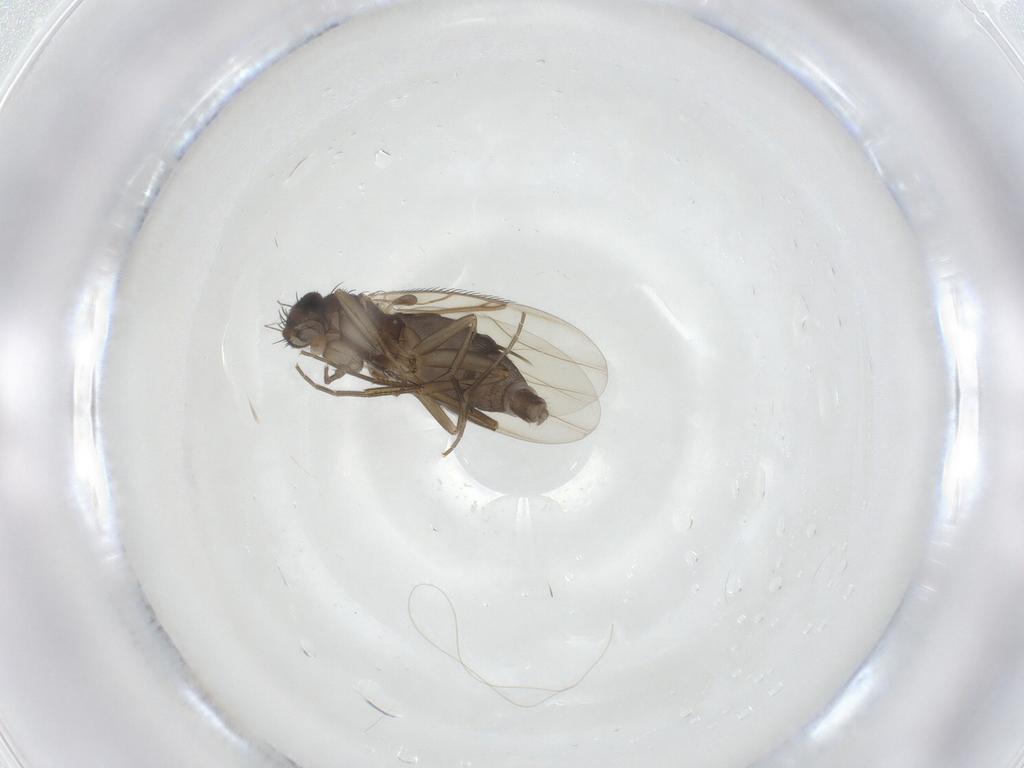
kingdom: Animalia
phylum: Arthropoda
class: Insecta
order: Diptera
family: Phoridae
